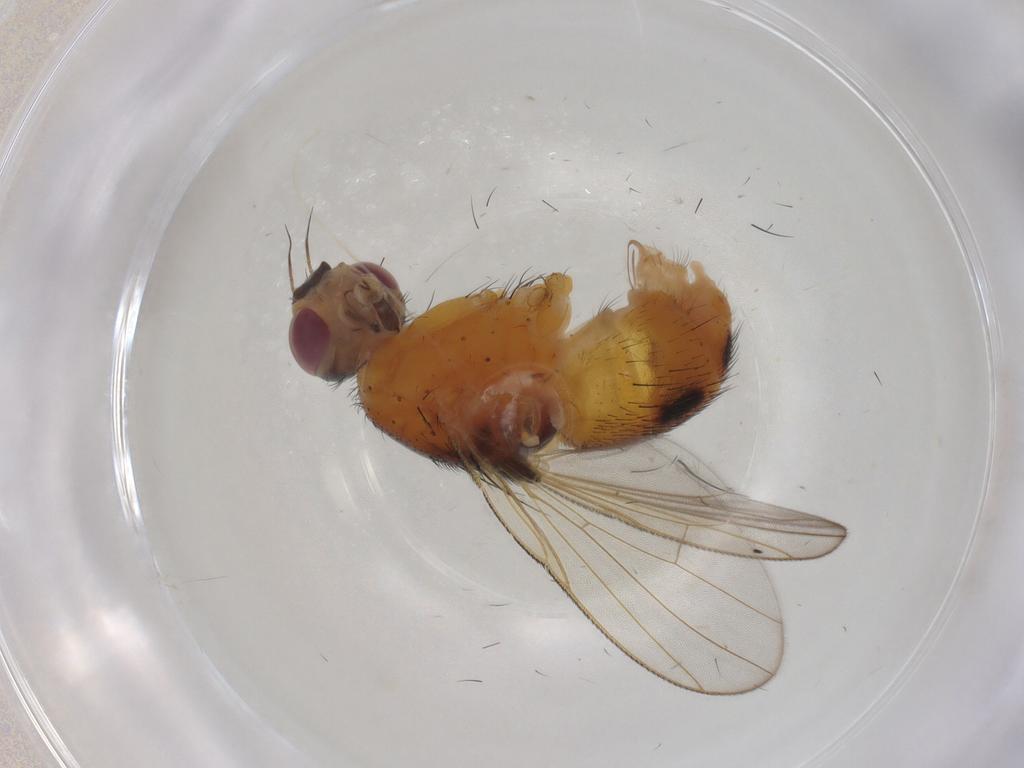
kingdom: Animalia
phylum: Arthropoda
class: Insecta
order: Diptera
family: Muscidae
